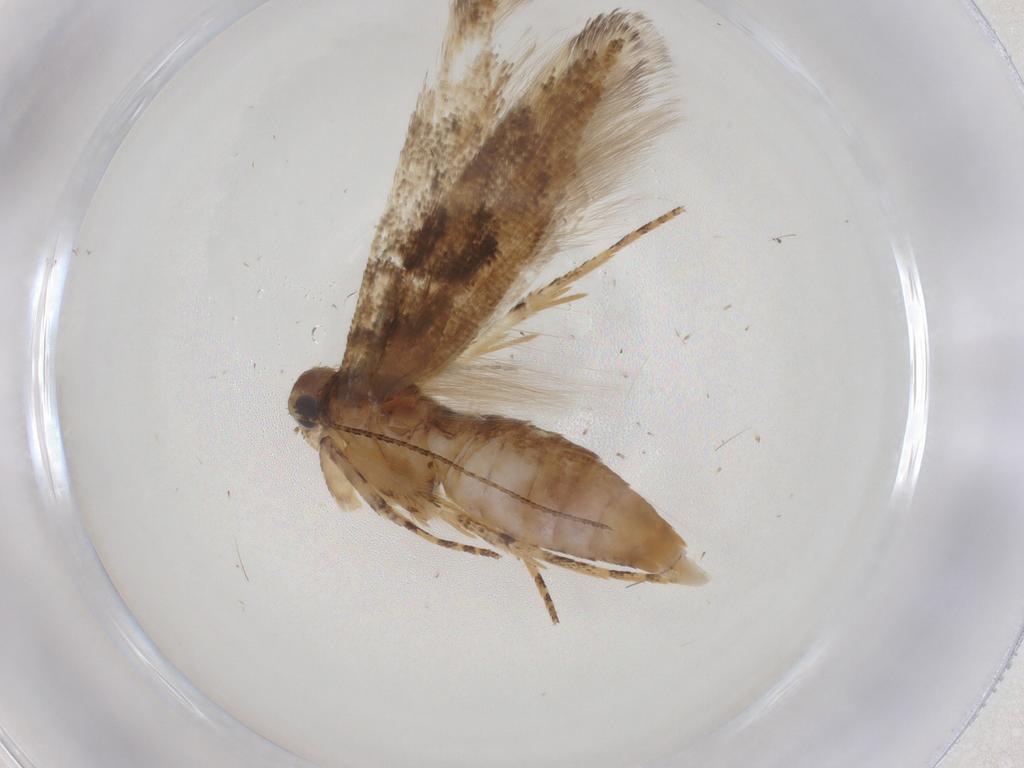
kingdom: Animalia
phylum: Arthropoda
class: Insecta
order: Lepidoptera
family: Gelechiidae
